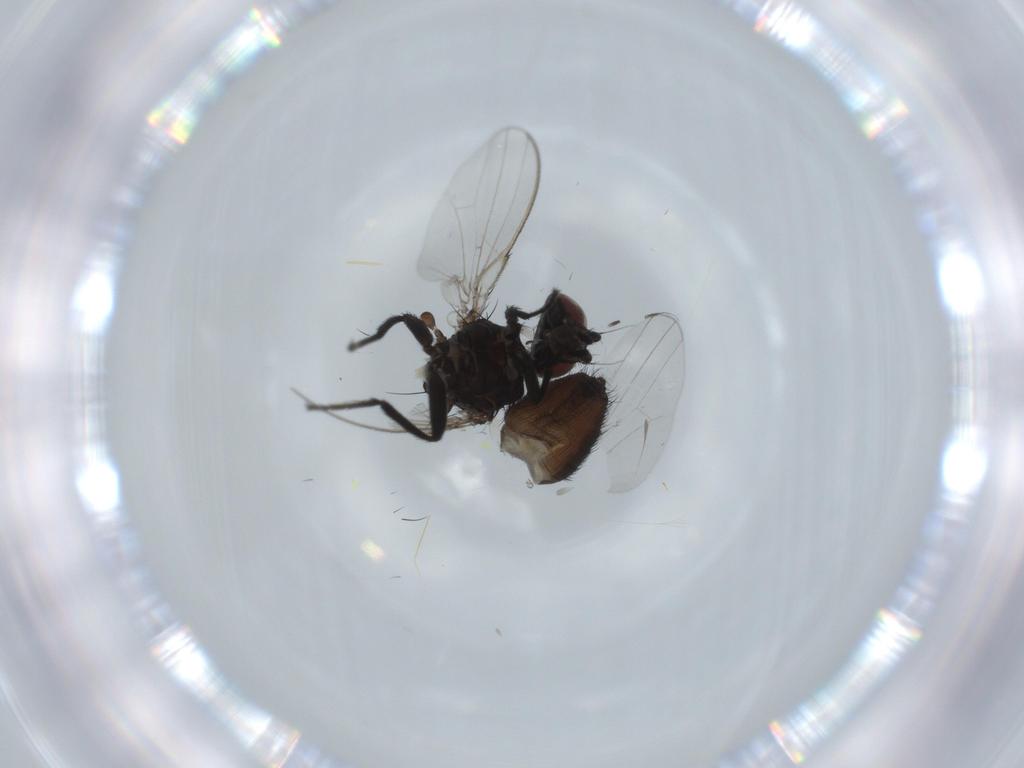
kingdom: Animalia
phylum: Arthropoda
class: Insecta
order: Diptera
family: Milichiidae
